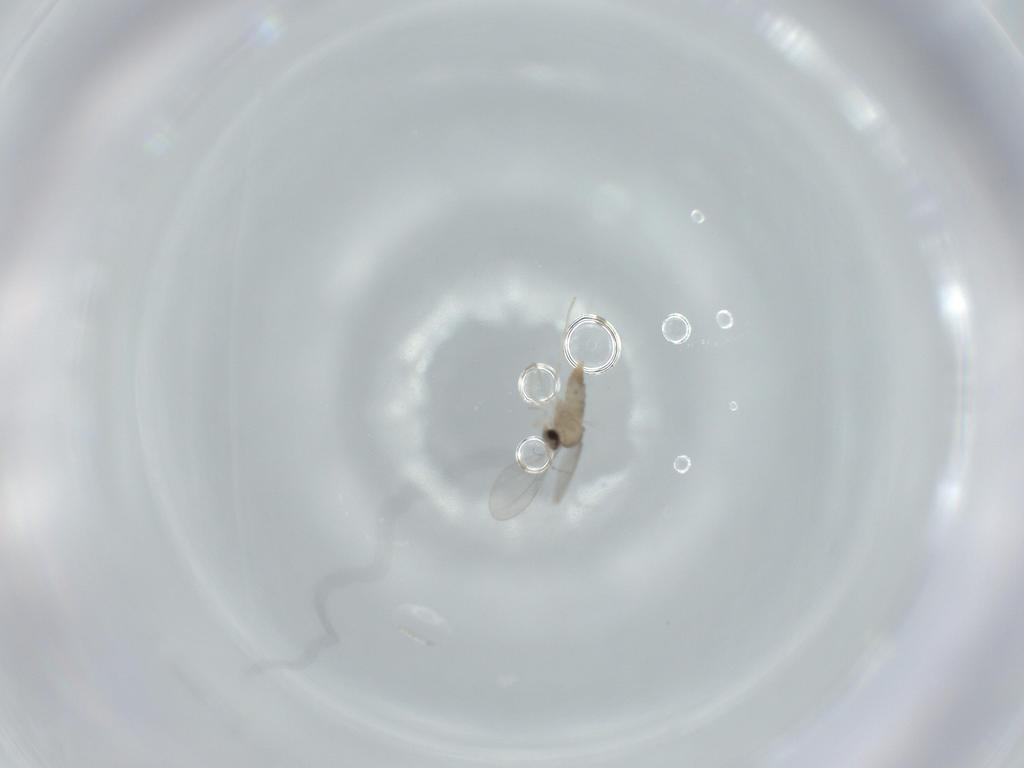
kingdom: Animalia
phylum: Arthropoda
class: Insecta
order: Diptera
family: Cecidomyiidae
